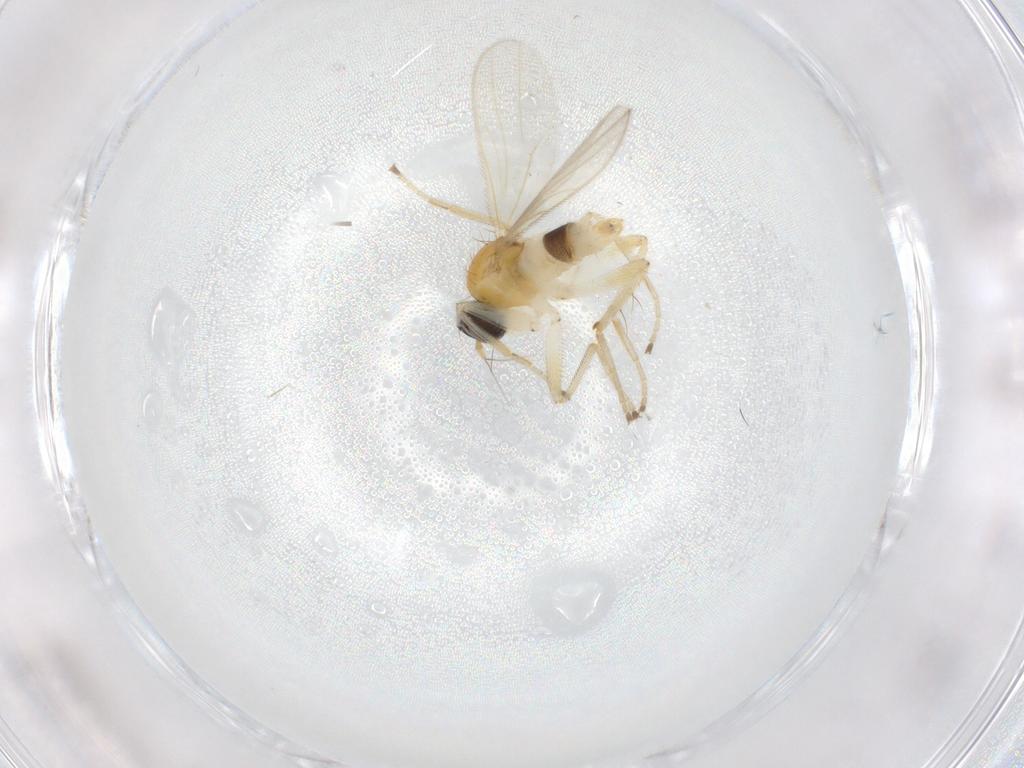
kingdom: Animalia
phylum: Arthropoda
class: Insecta
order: Diptera
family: Hybotidae
